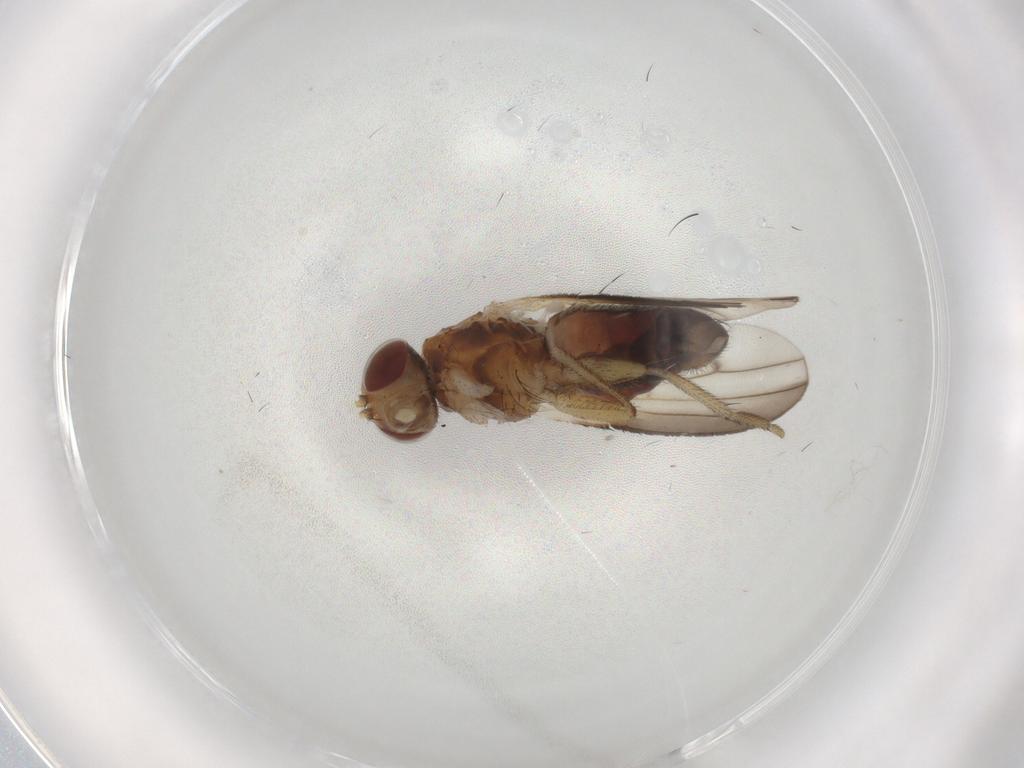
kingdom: Animalia
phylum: Arthropoda
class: Insecta
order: Diptera
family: Heleomyzidae
